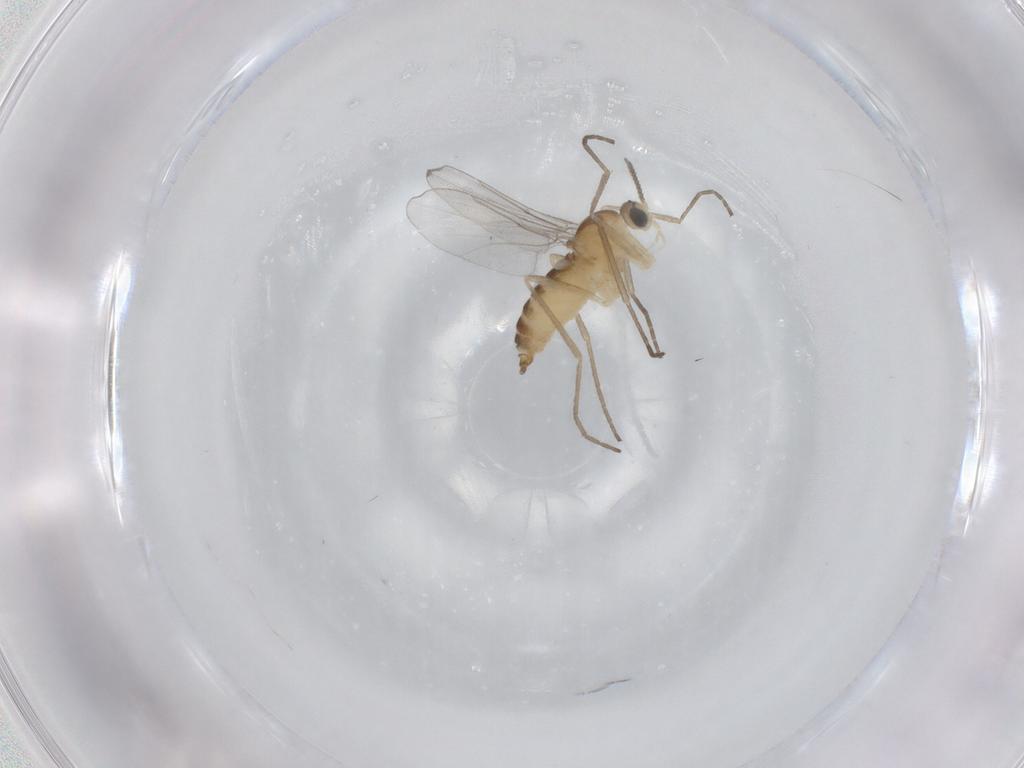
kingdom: Animalia
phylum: Arthropoda
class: Insecta
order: Diptera
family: Cecidomyiidae
